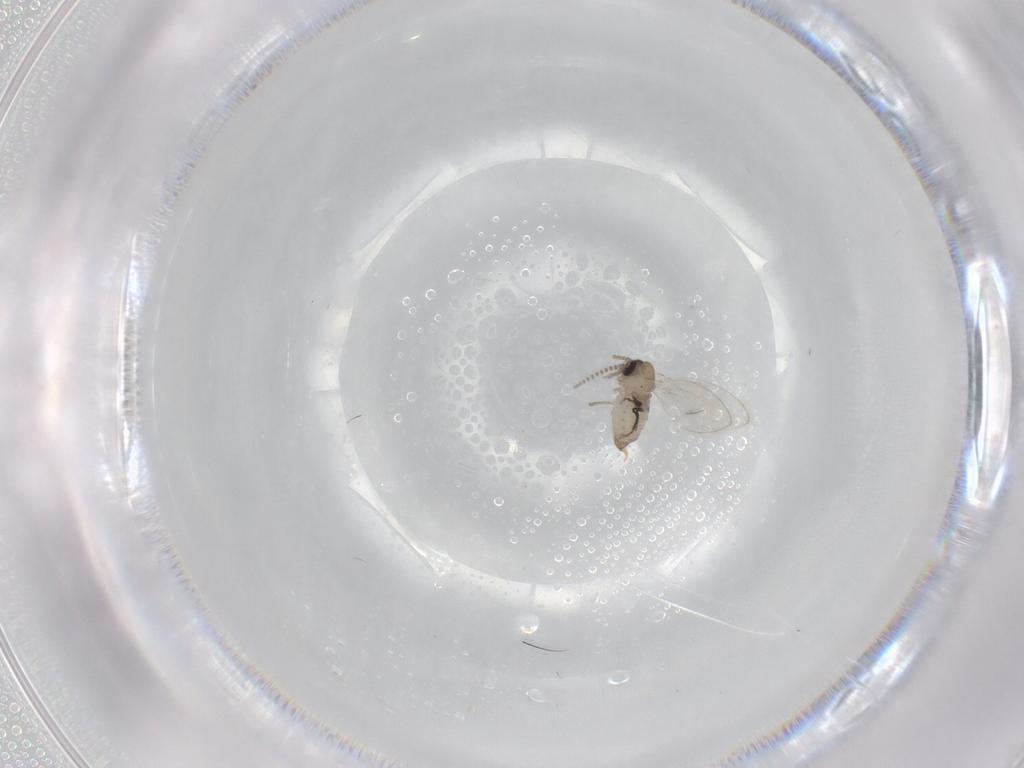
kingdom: Animalia
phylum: Arthropoda
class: Insecta
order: Diptera
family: Psychodidae
